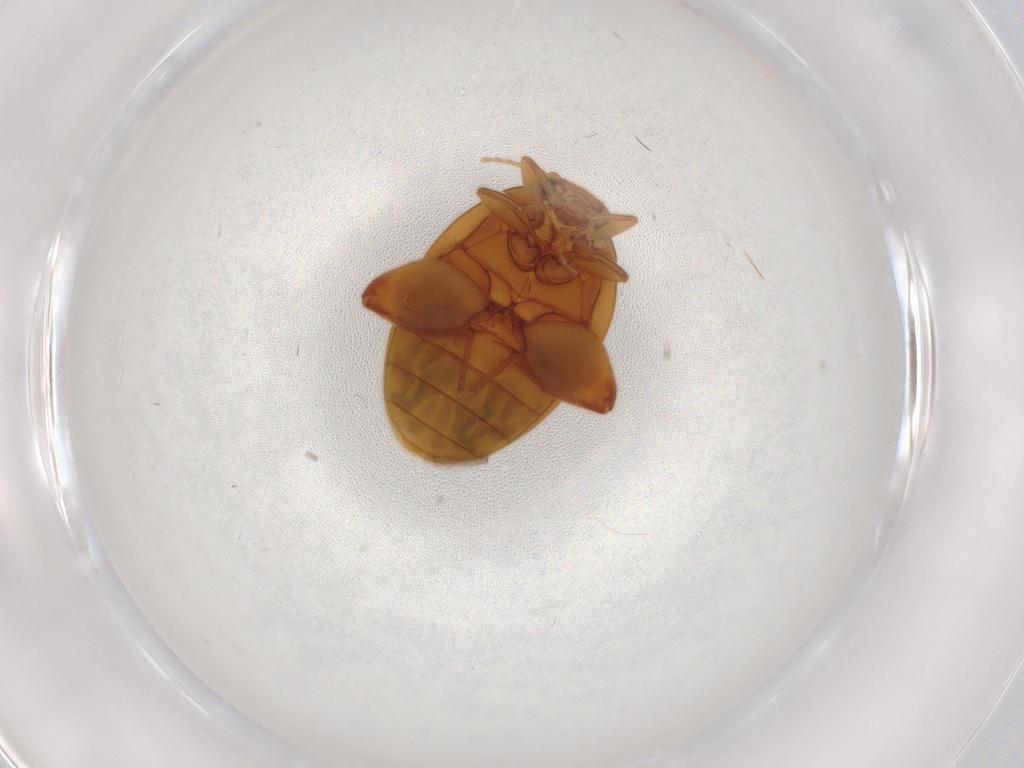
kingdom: Animalia
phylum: Arthropoda
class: Insecta
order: Coleoptera
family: Scirtidae
